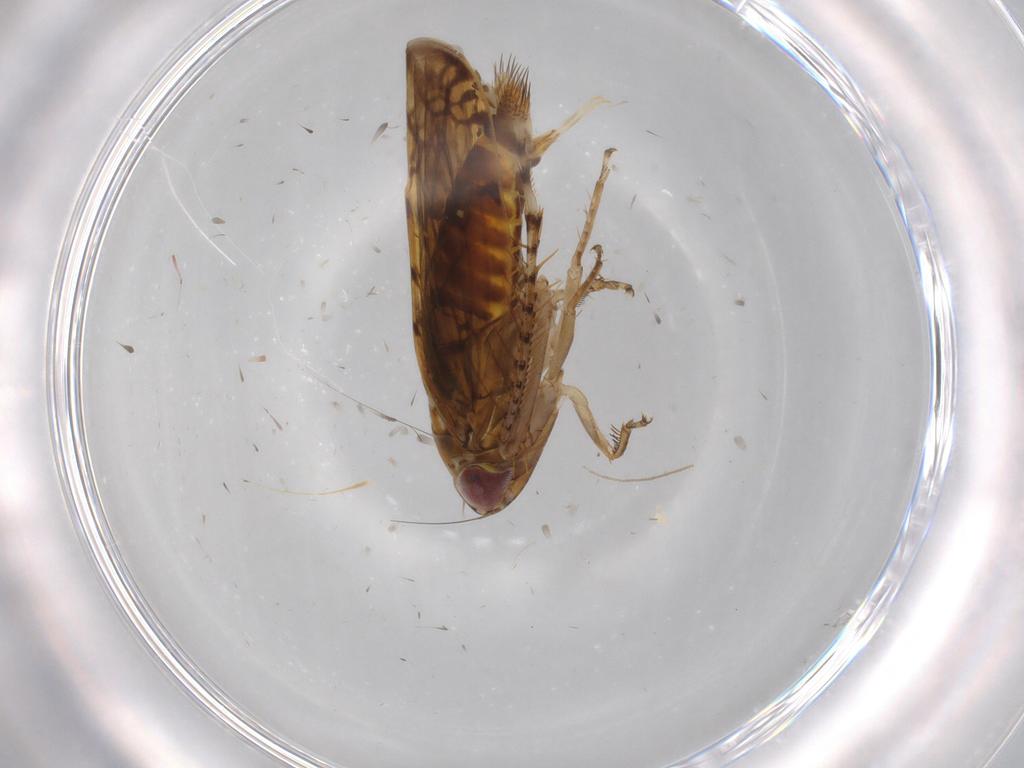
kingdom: Animalia
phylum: Arthropoda
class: Insecta
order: Hemiptera
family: Cicadellidae
